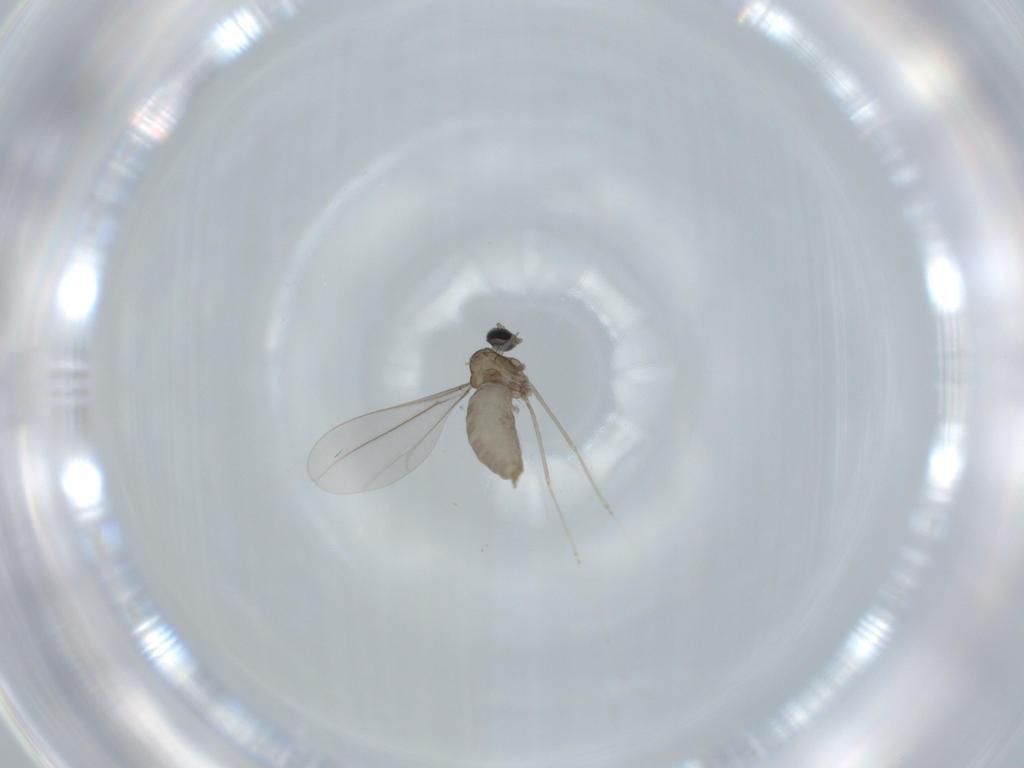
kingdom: Animalia
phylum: Arthropoda
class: Insecta
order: Diptera
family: Cecidomyiidae
